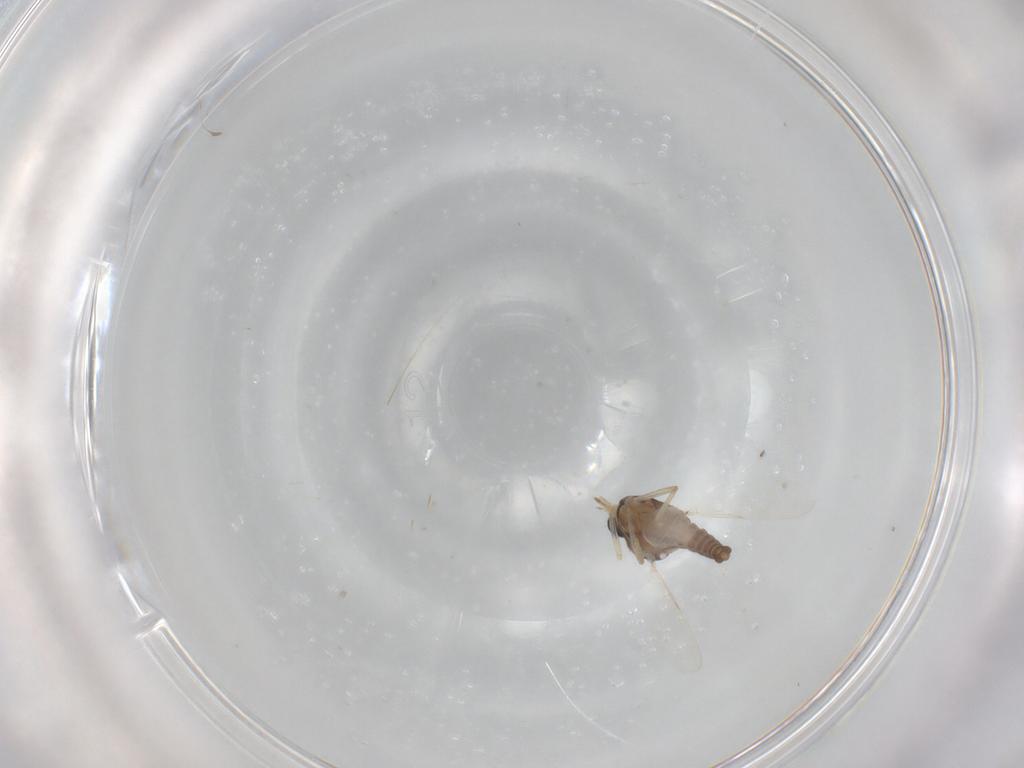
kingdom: Animalia
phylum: Arthropoda
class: Insecta
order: Diptera
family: Ceratopogonidae
